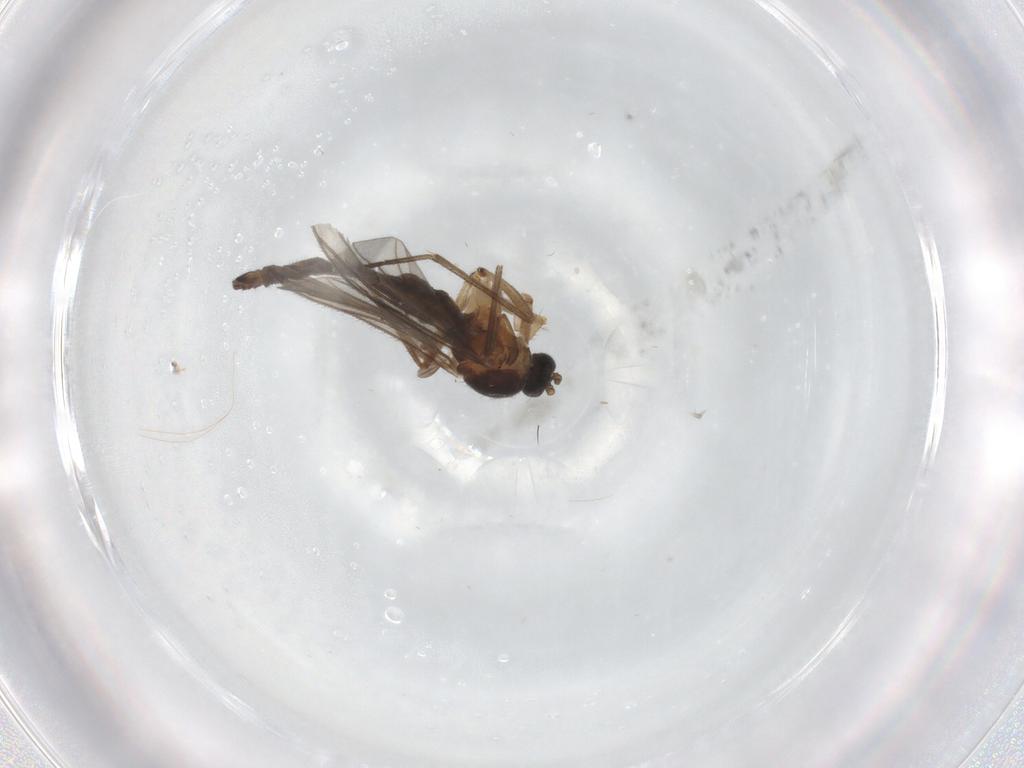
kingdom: Animalia
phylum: Arthropoda
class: Insecta
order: Diptera
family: Sciaridae
